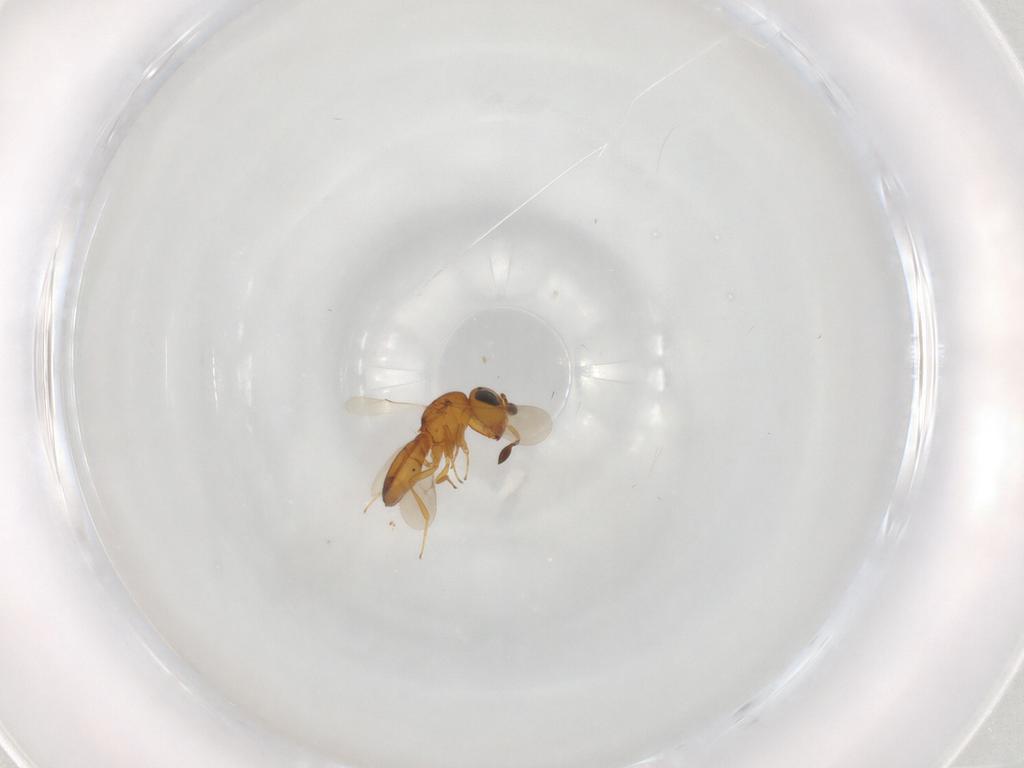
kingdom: Animalia
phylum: Arthropoda
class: Insecta
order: Hymenoptera
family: Scelionidae
